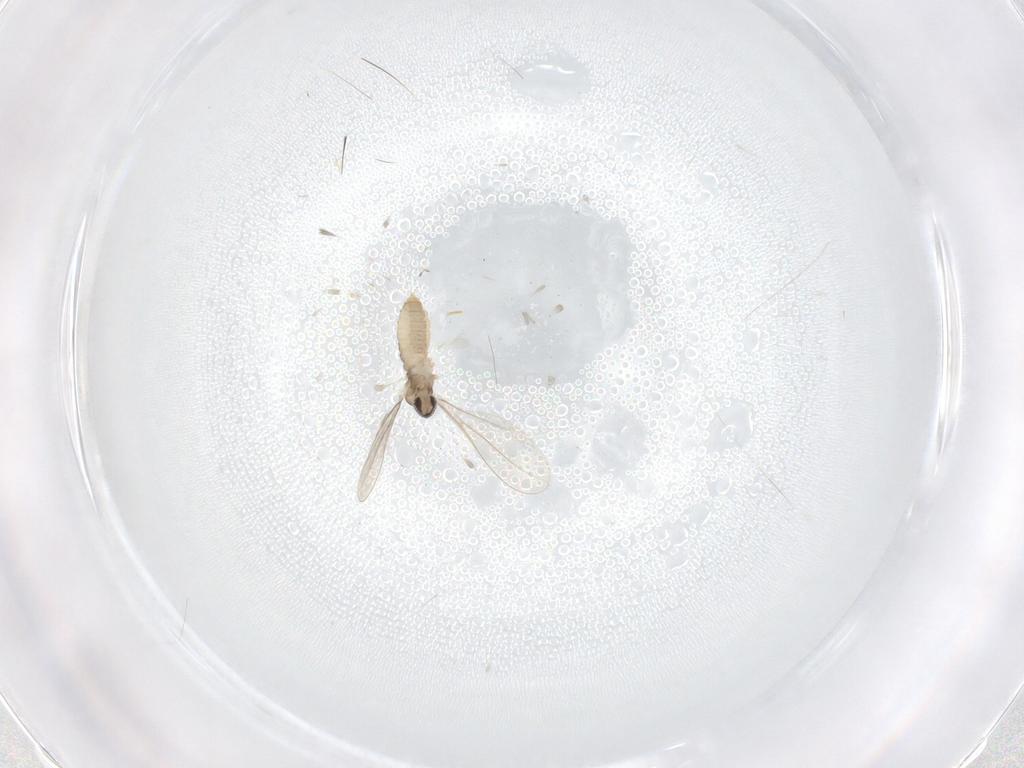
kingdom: Animalia
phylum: Arthropoda
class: Insecta
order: Diptera
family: Cecidomyiidae
